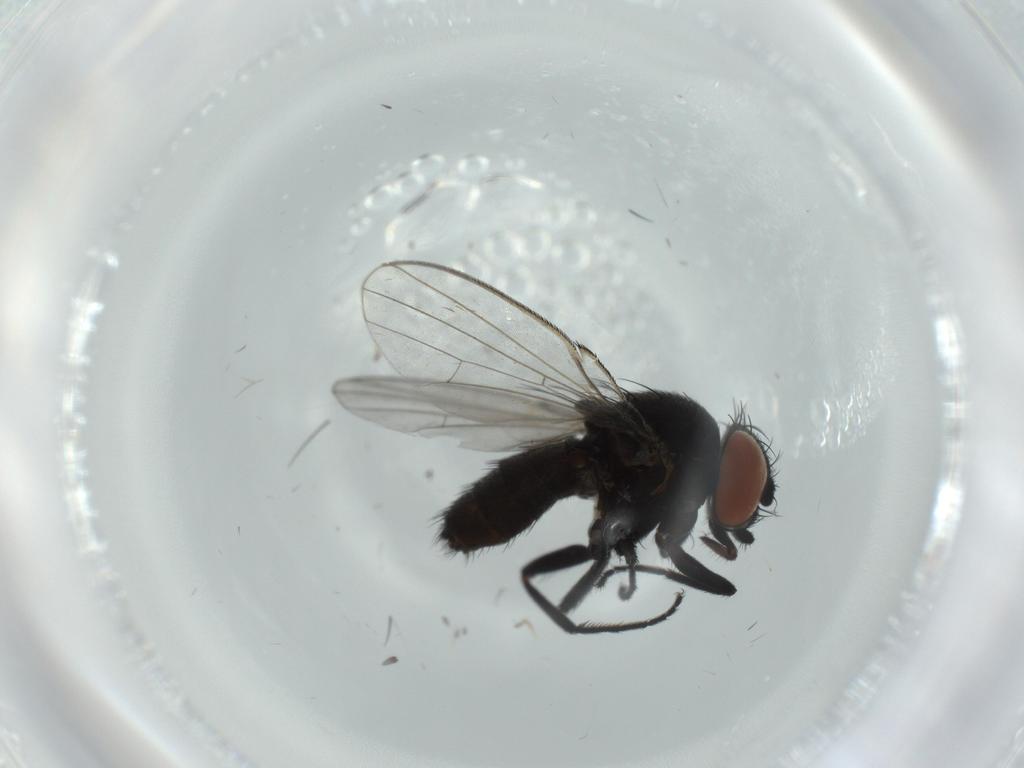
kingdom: Animalia
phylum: Arthropoda
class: Insecta
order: Diptera
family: Milichiidae
